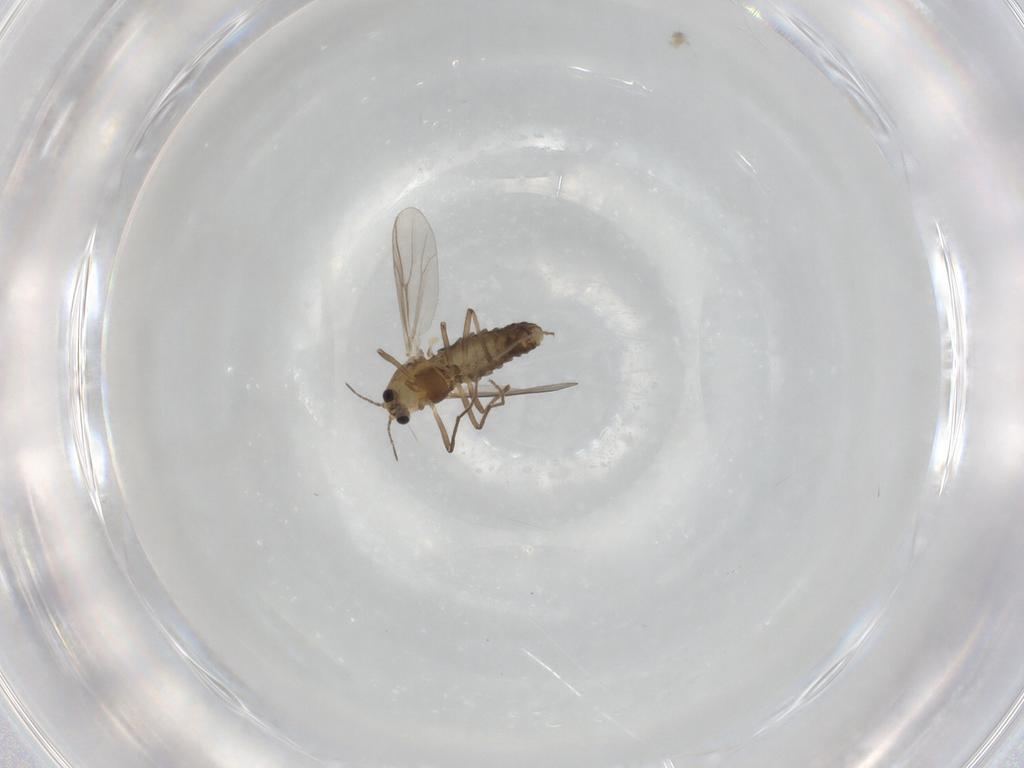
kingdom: Animalia
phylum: Arthropoda
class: Insecta
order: Diptera
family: Chironomidae
